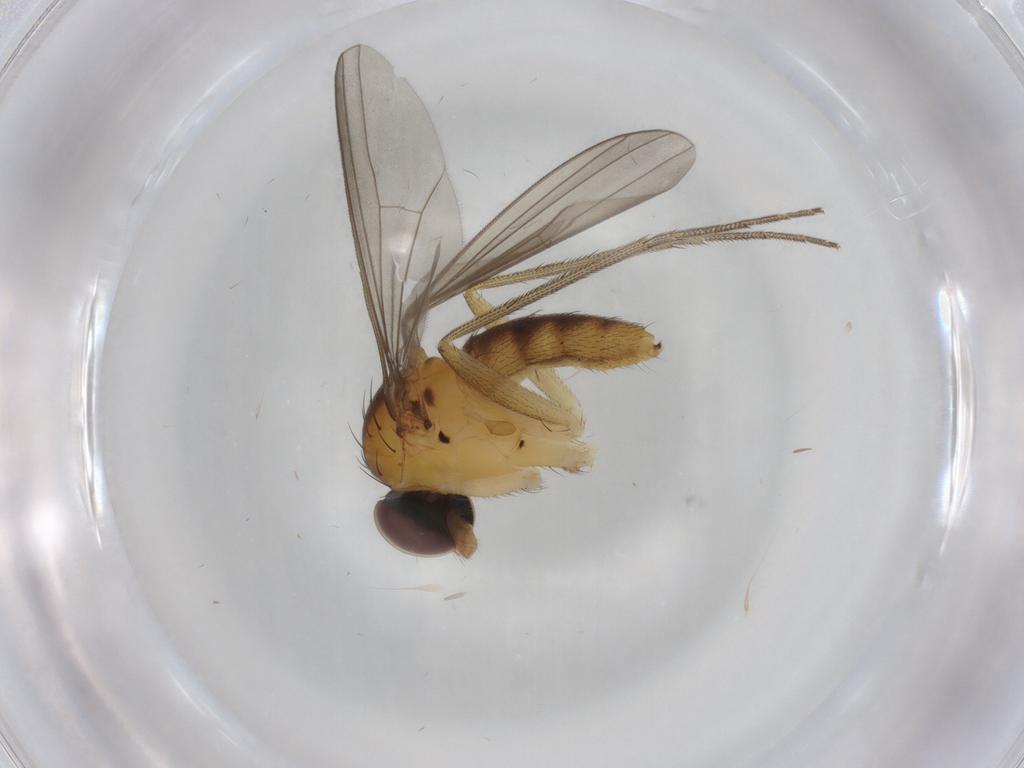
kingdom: Animalia
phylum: Arthropoda
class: Insecta
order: Diptera
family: Dolichopodidae
